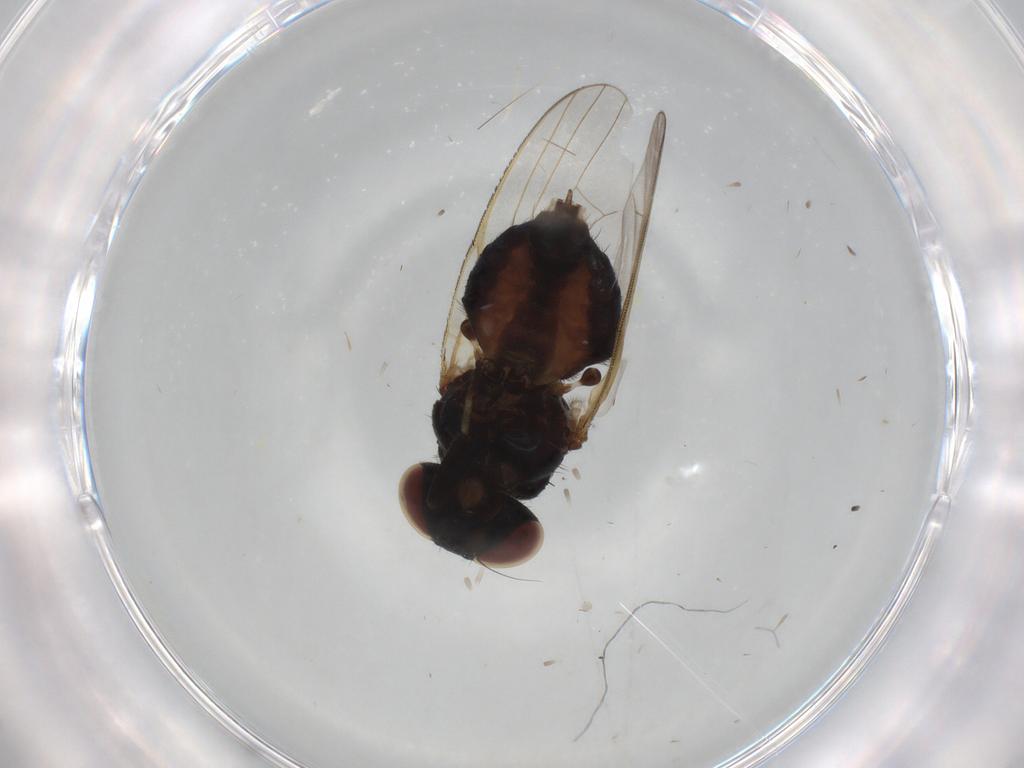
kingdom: Animalia
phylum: Arthropoda
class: Insecta
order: Diptera
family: Lonchaeidae
